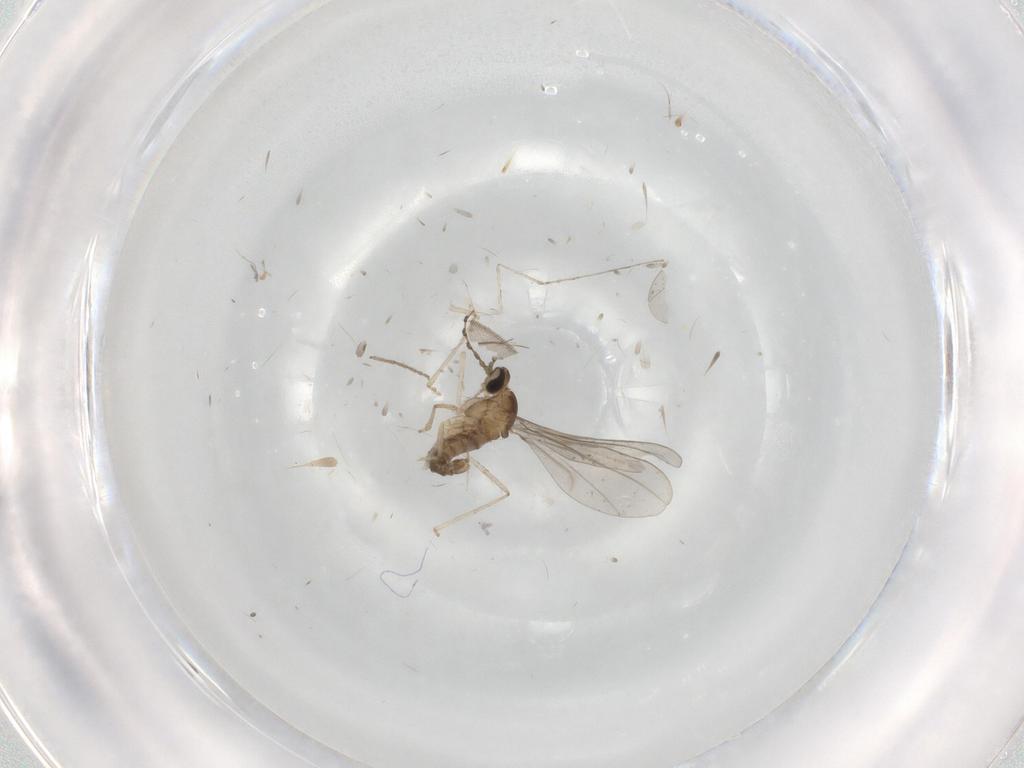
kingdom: Animalia
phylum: Arthropoda
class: Insecta
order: Diptera
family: Cecidomyiidae
